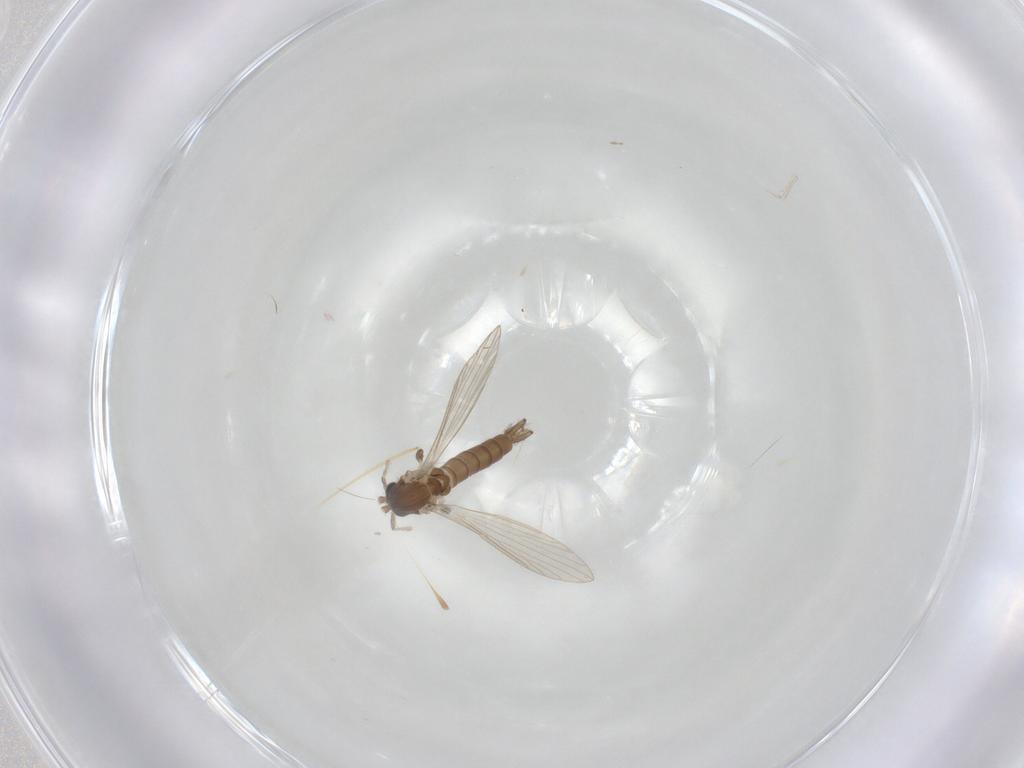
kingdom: Animalia
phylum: Arthropoda
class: Insecta
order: Diptera
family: Psychodidae
